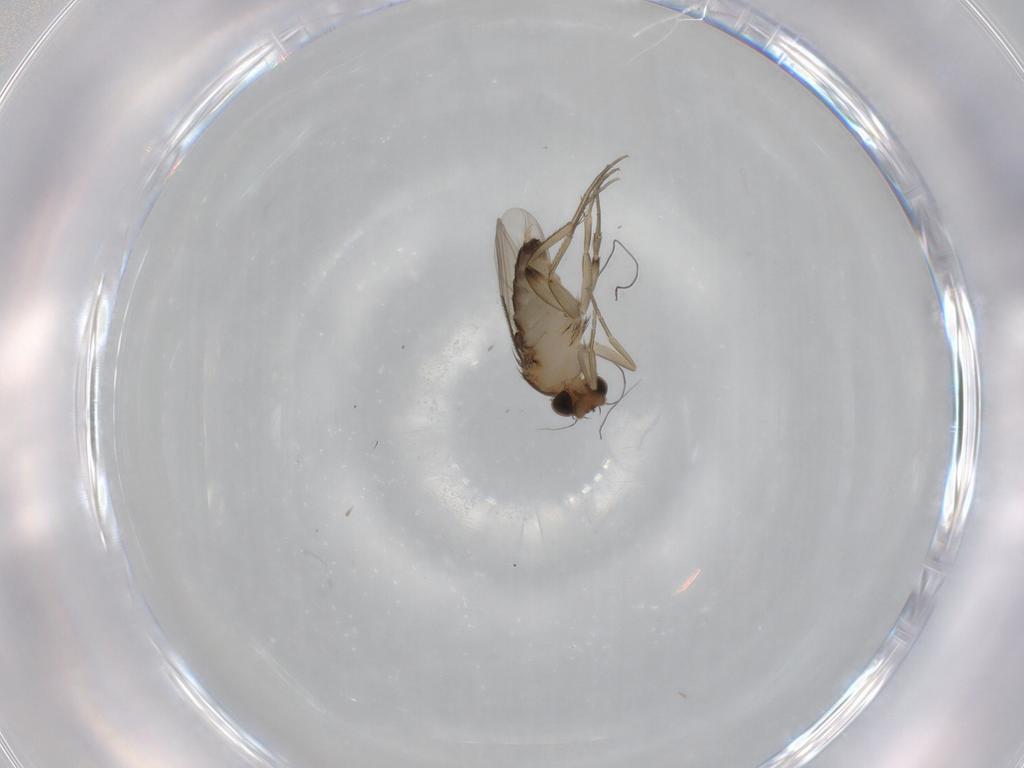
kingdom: Animalia
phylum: Arthropoda
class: Insecta
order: Diptera
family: Phoridae
